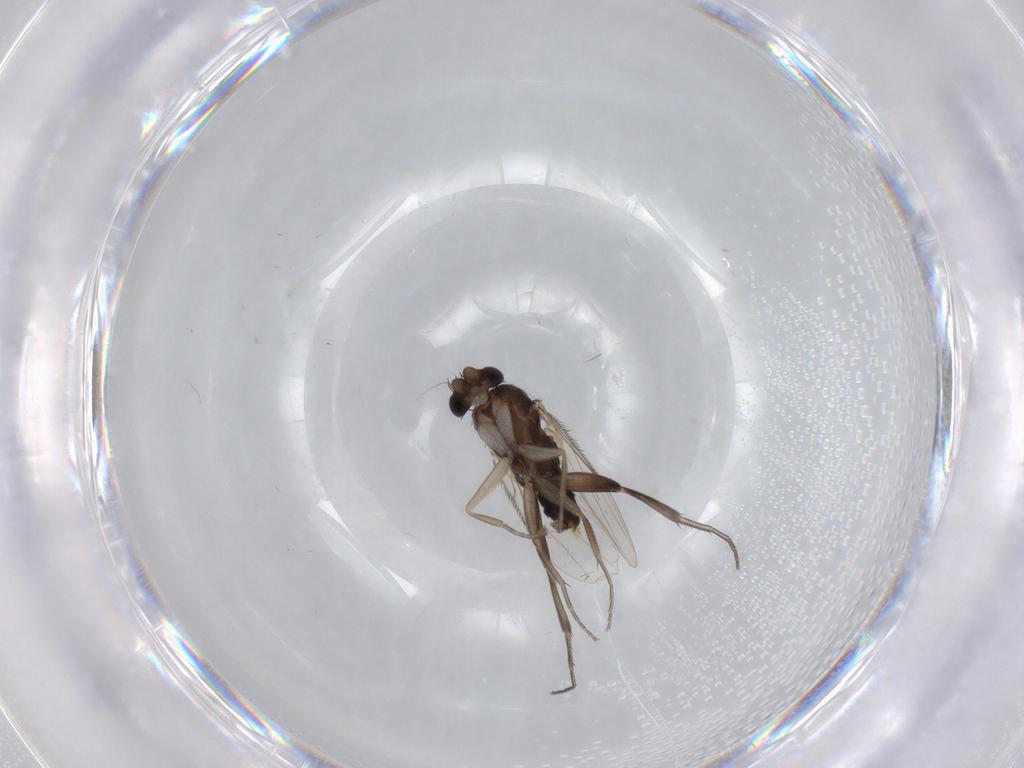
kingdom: Animalia
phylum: Arthropoda
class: Insecta
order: Diptera
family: Phoridae
